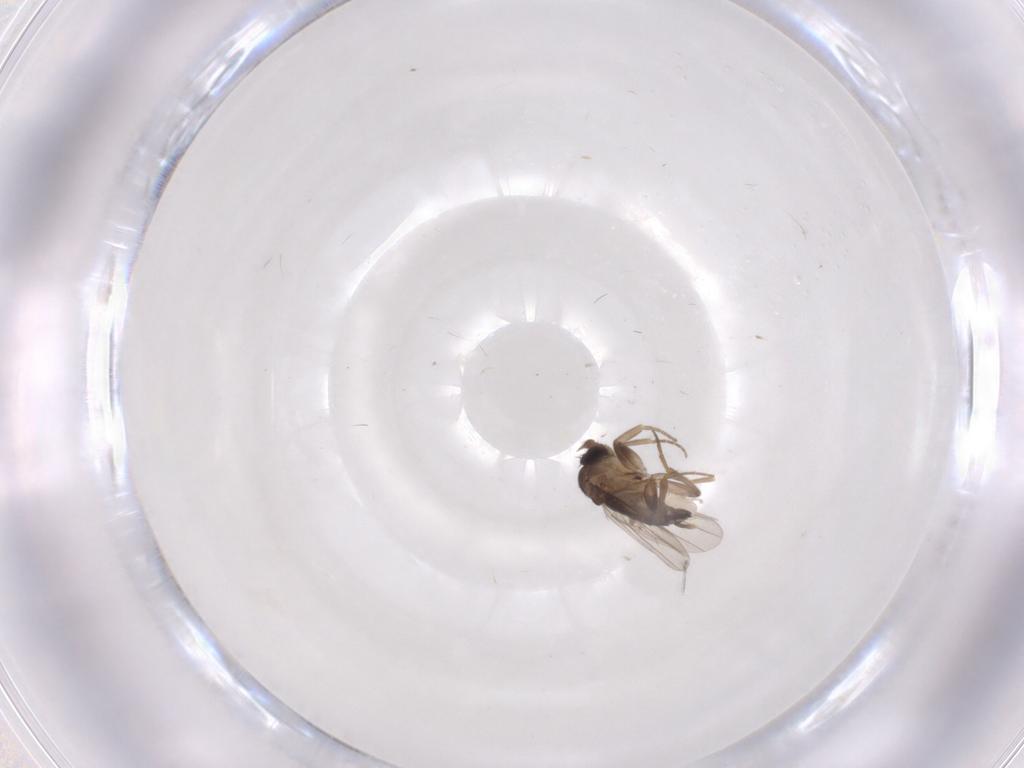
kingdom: Animalia
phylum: Arthropoda
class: Insecta
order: Diptera
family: Phoridae
